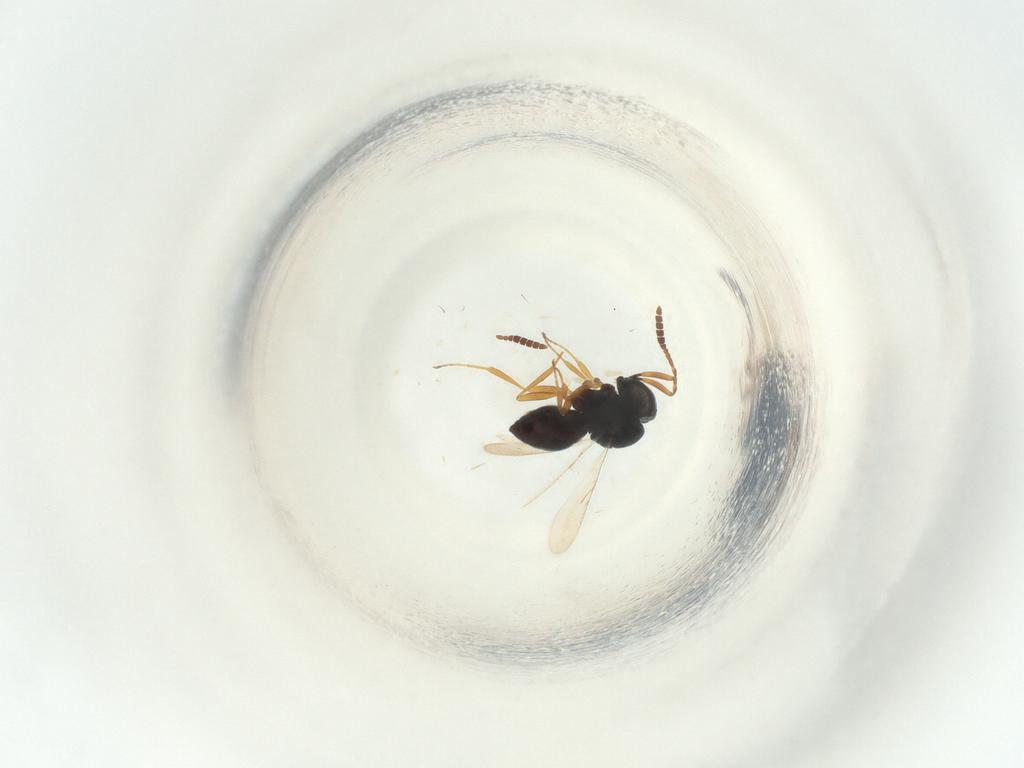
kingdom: Animalia
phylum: Arthropoda
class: Insecta
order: Hymenoptera
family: Scelionidae
